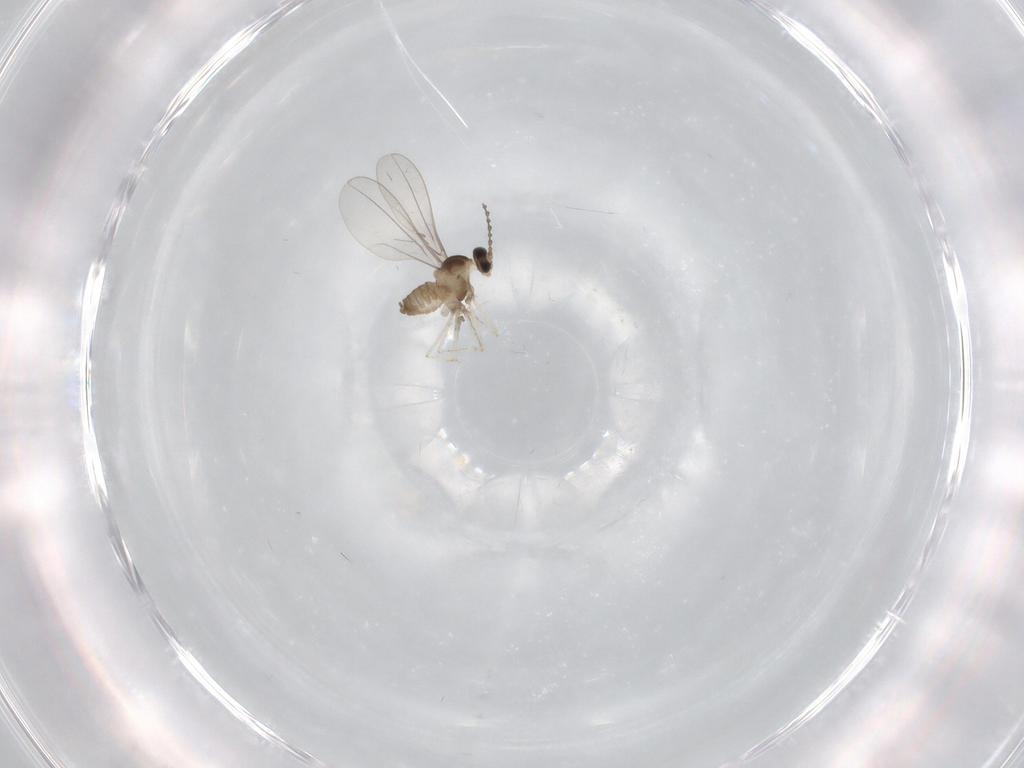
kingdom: Animalia
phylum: Arthropoda
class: Insecta
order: Diptera
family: Cecidomyiidae
